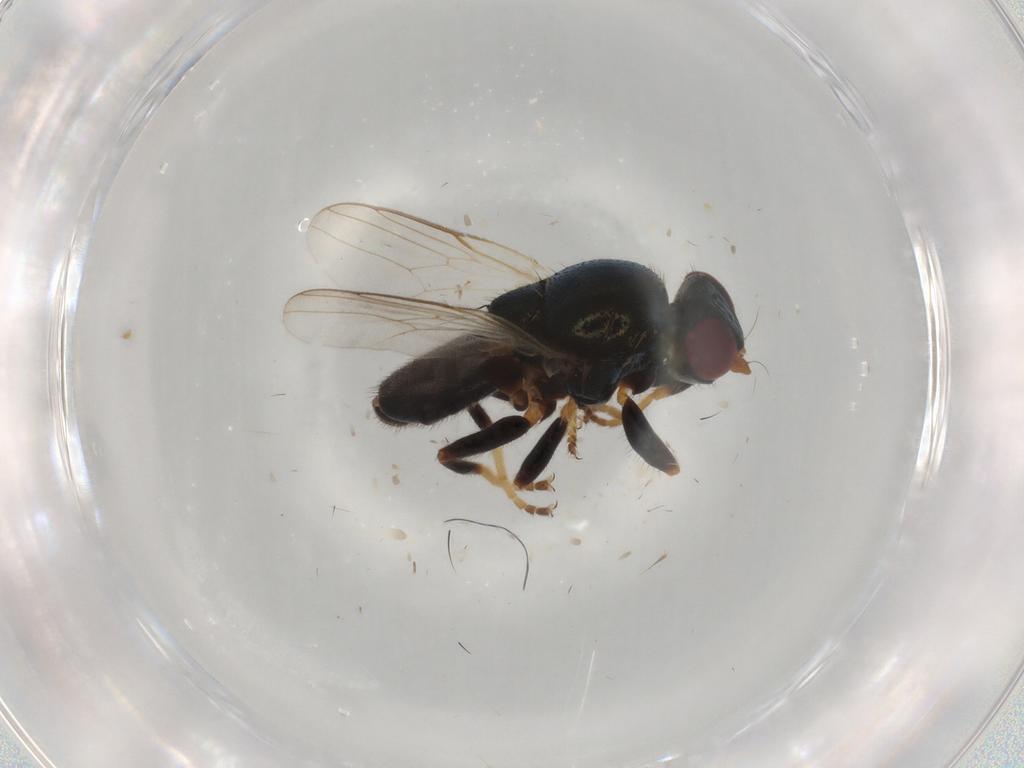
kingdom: Animalia
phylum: Arthropoda
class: Insecta
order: Diptera
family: Chloropidae
